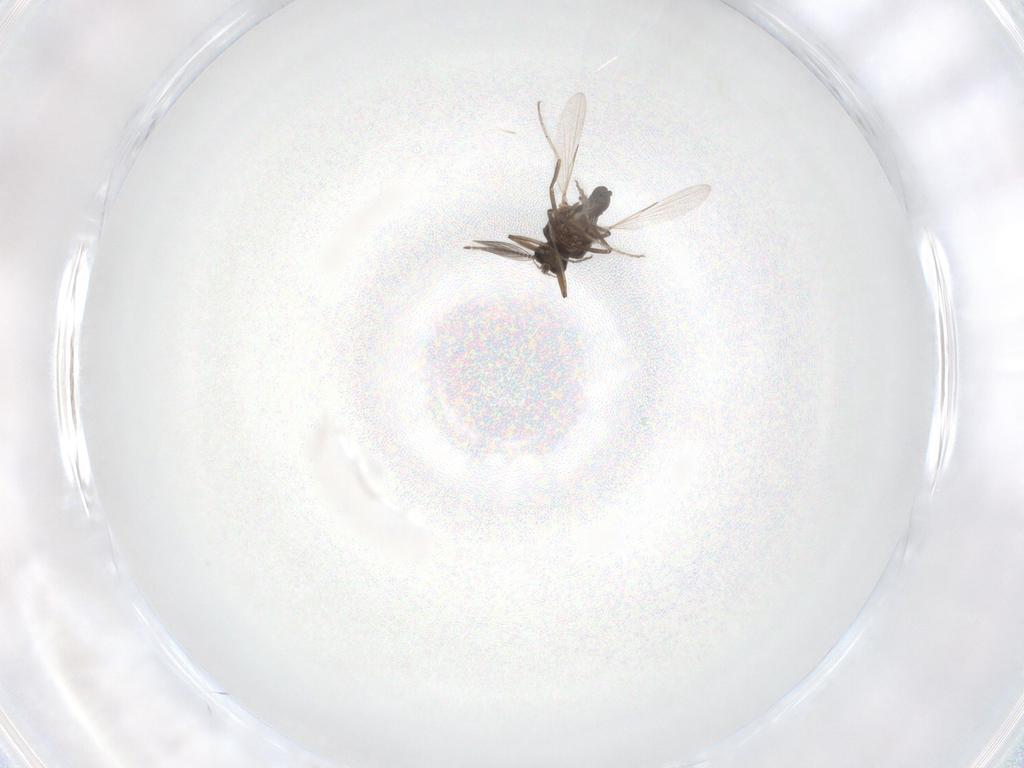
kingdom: Animalia
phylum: Arthropoda
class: Insecta
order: Diptera
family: Ceratopogonidae
